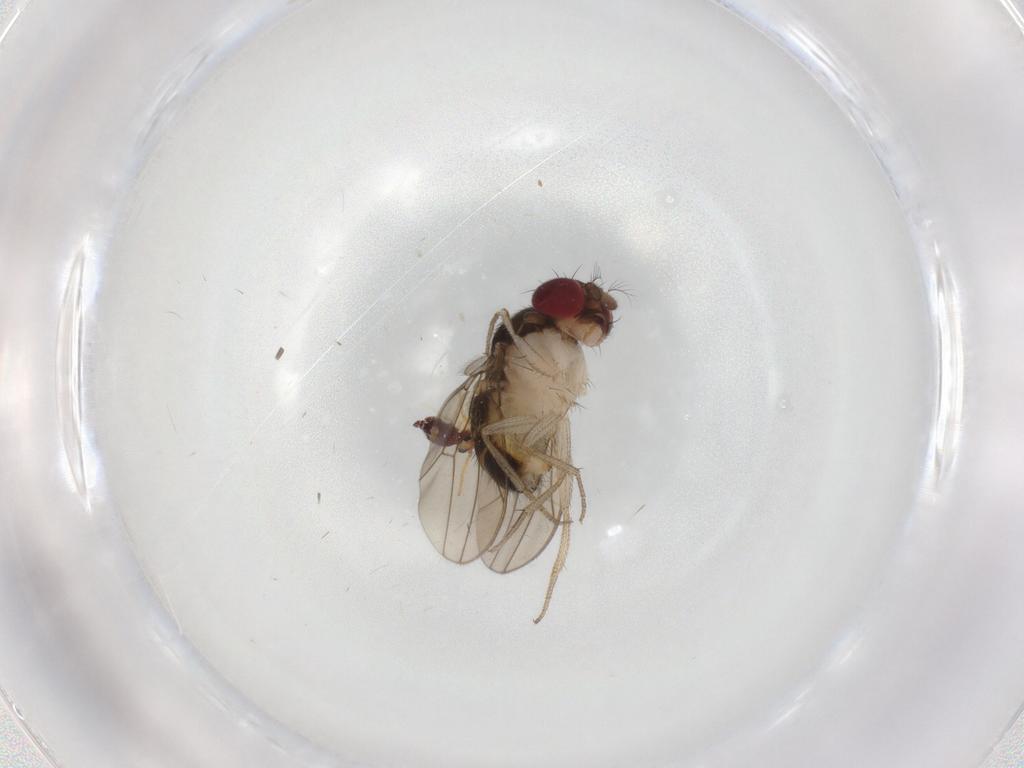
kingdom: Animalia
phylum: Arthropoda
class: Insecta
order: Diptera
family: Drosophilidae
